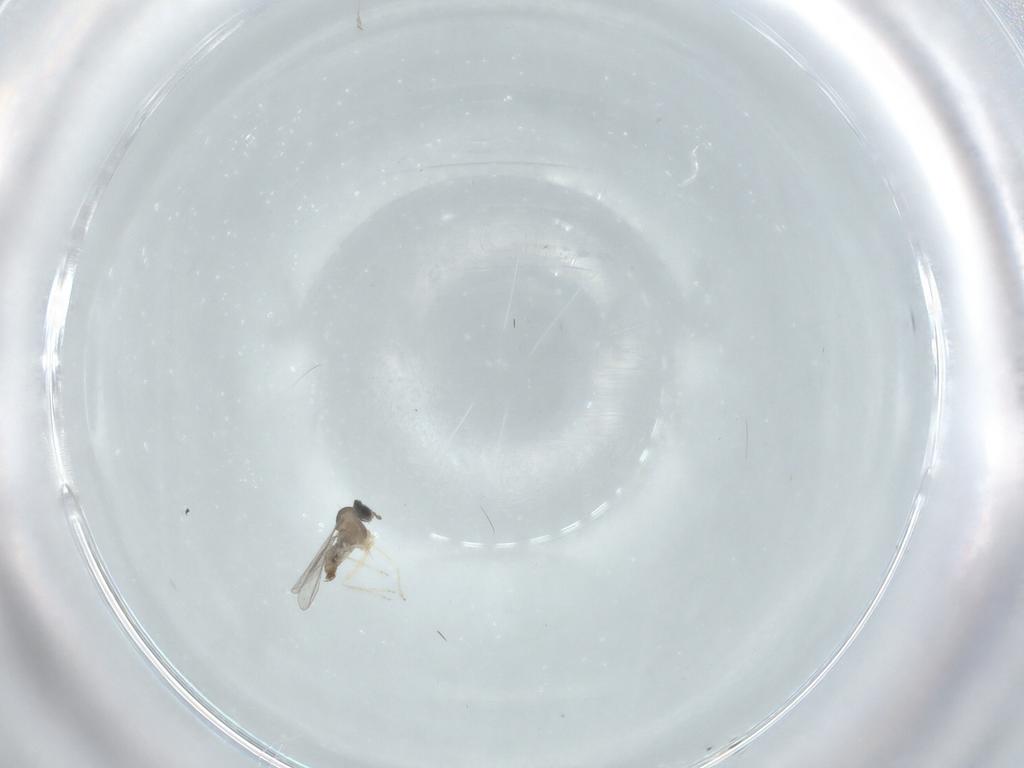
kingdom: Animalia
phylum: Arthropoda
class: Insecta
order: Diptera
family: Cecidomyiidae
